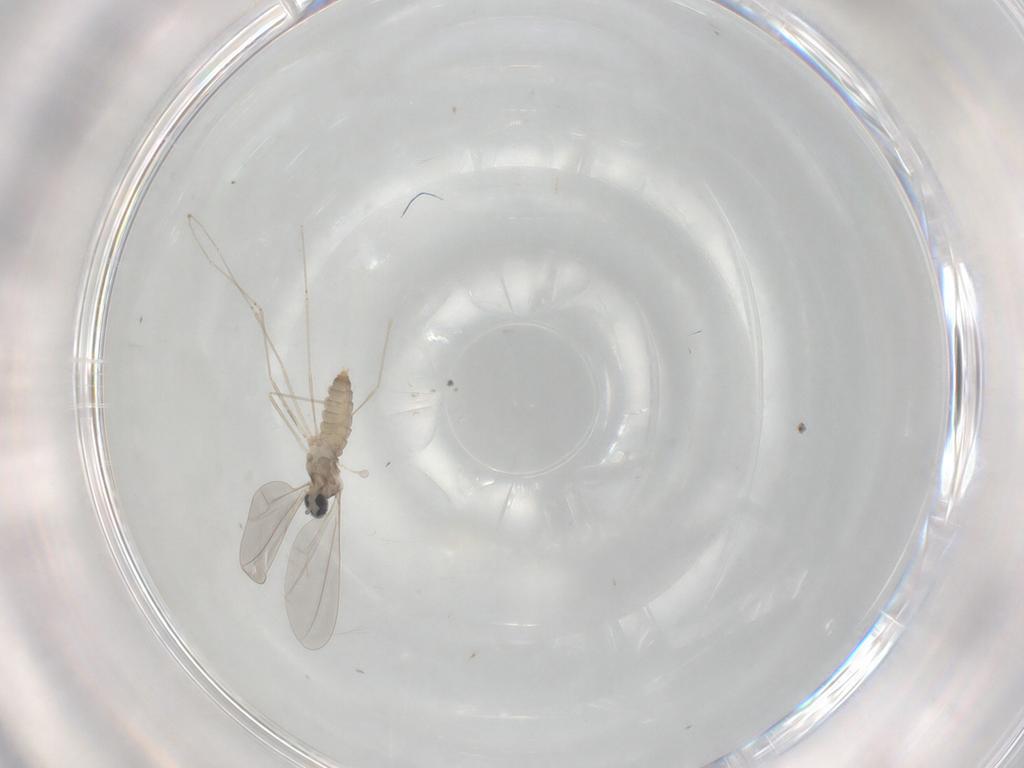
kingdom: Animalia
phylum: Arthropoda
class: Insecta
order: Diptera
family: Cecidomyiidae
